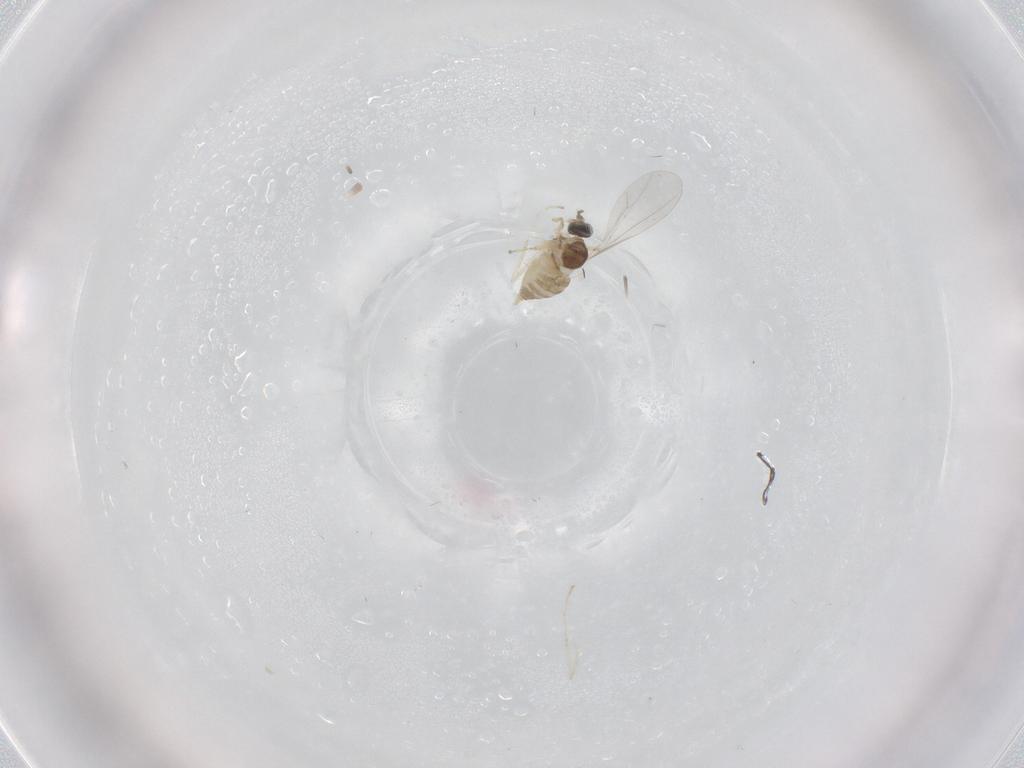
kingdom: Animalia
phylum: Arthropoda
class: Insecta
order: Diptera
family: Cecidomyiidae
